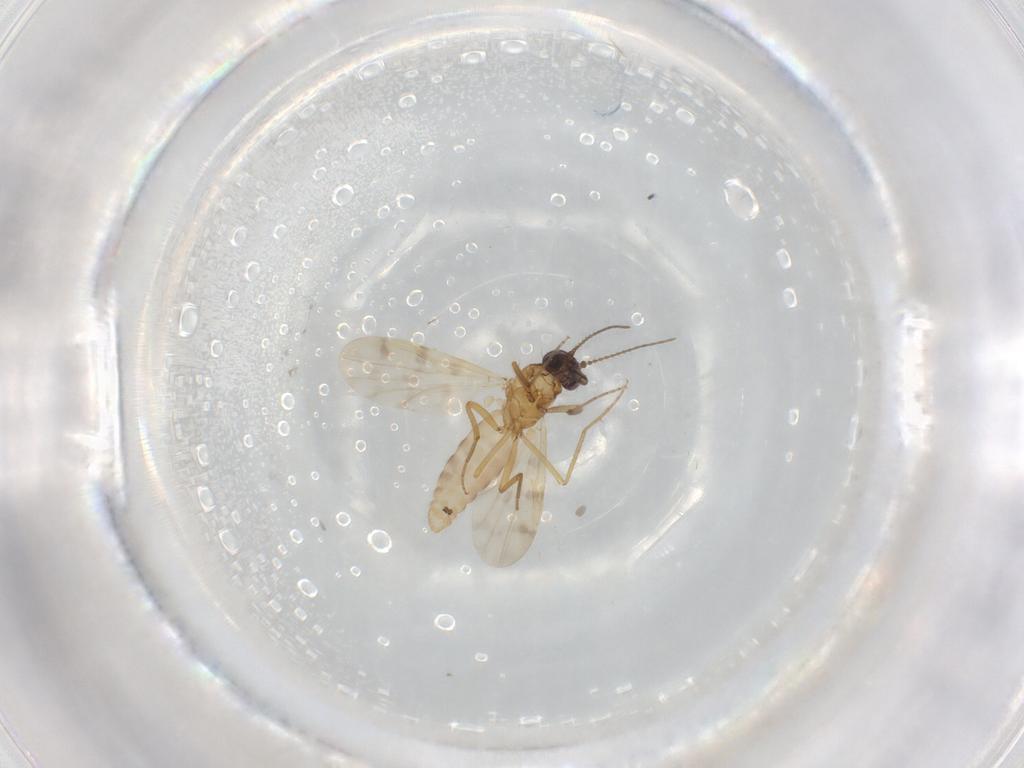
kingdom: Animalia
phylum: Arthropoda
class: Insecta
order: Diptera
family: Ceratopogonidae
